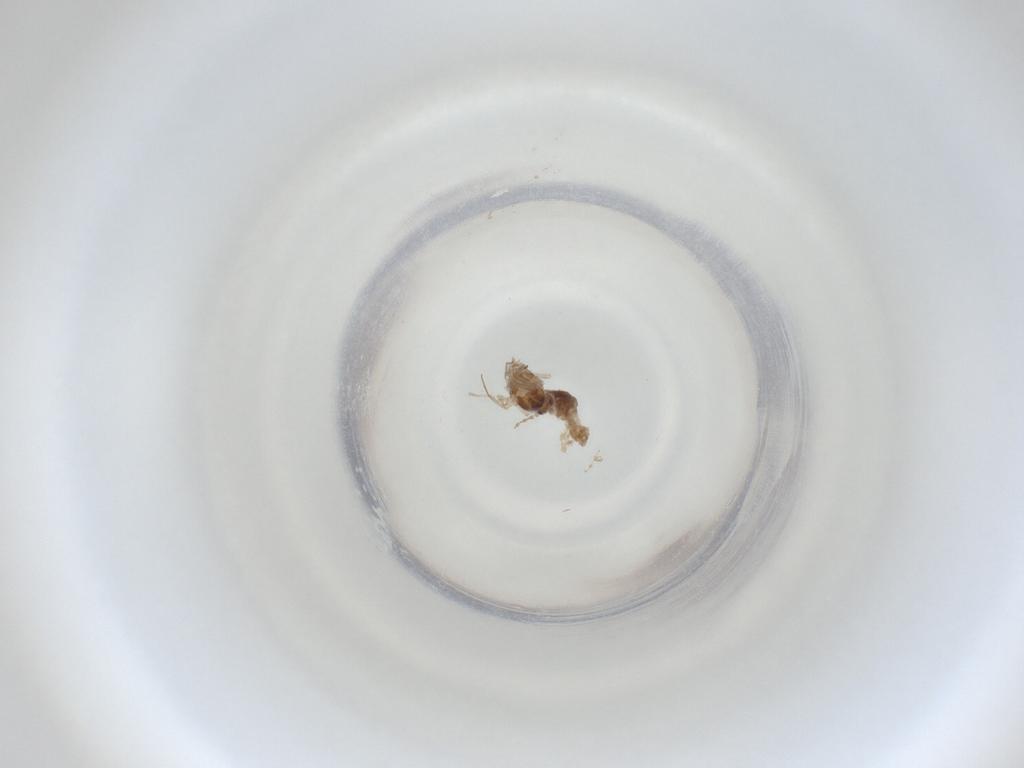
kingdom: Animalia
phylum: Arthropoda
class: Insecta
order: Diptera
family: Cecidomyiidae
